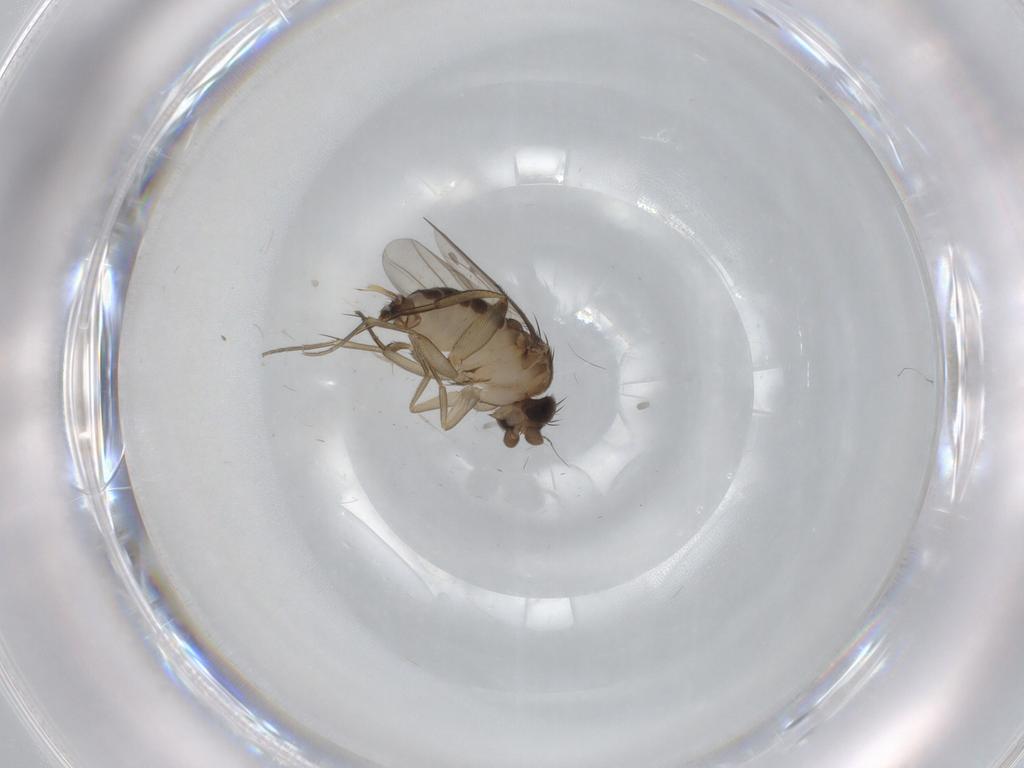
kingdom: Animalia
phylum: Arthropoda
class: Insecta
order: Diptera
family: Phoridae
